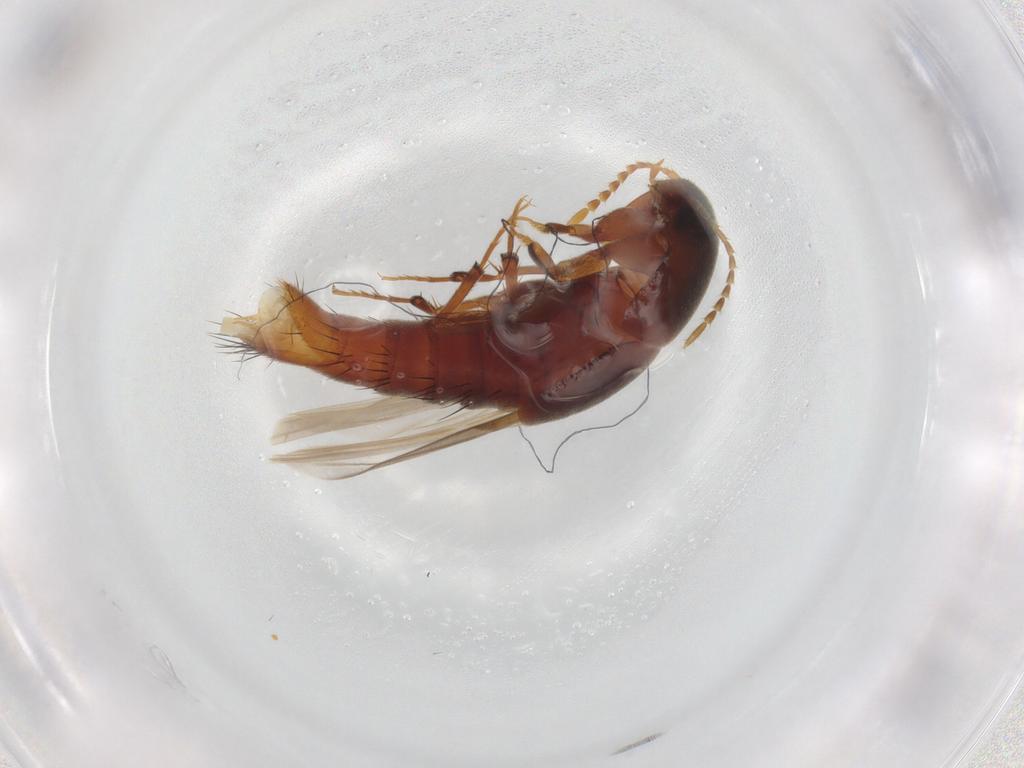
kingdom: Animalia
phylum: Arthropoda
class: Insecta
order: Coleoptera
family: Staphylinidae
